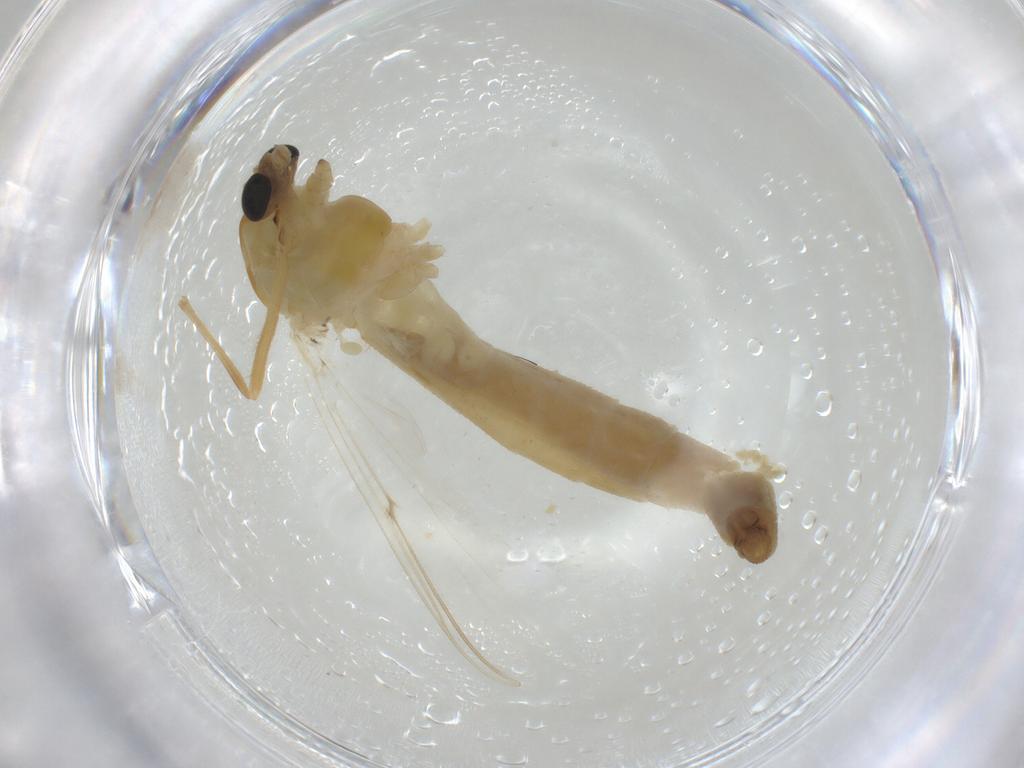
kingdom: Animalia
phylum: Arthropoda
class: Insecta
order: Diptera
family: Chironomidae
